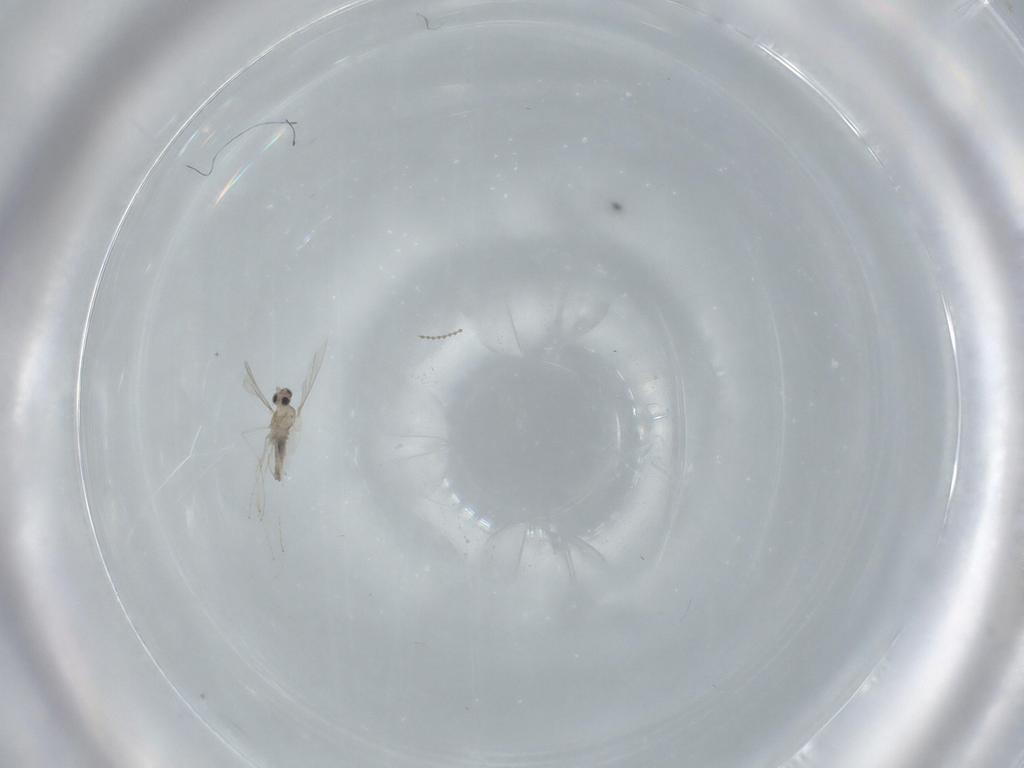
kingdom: Animalia
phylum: Arthropoda
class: Insecta
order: Diptera
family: Cecidomyiidae
